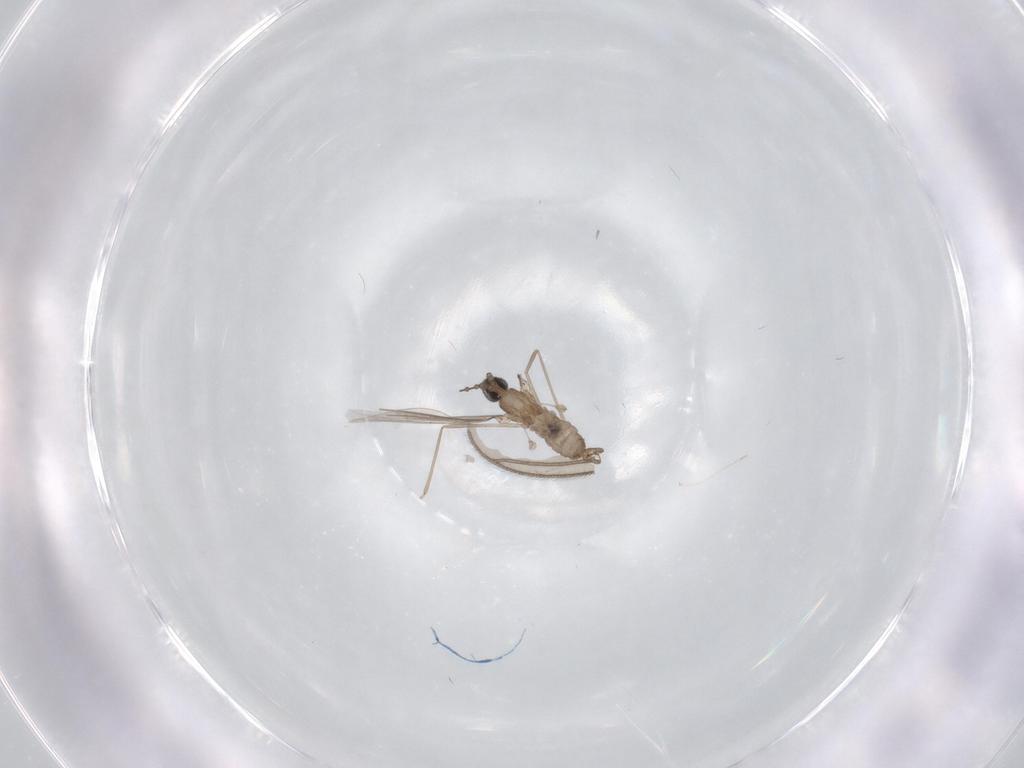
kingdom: Animalia
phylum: Arthropoda
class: Insecta
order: Diptera
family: Cecidomyiidae
